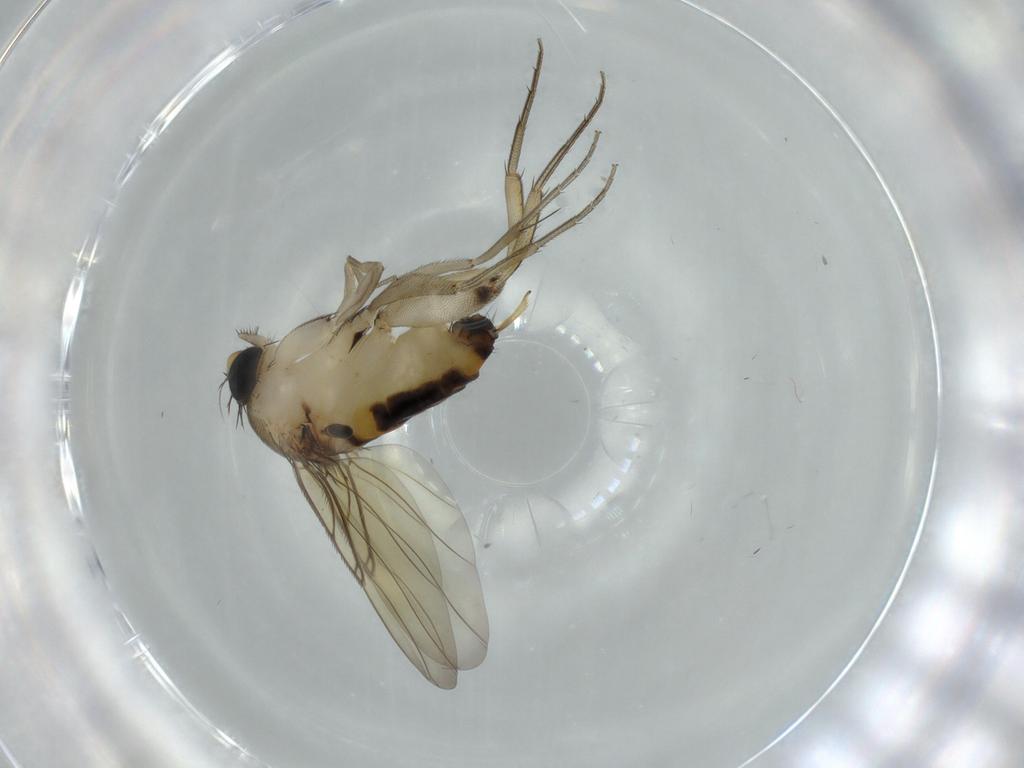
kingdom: Animalia
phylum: Arthropoda
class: Insecta
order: Diptera
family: Phoridae
